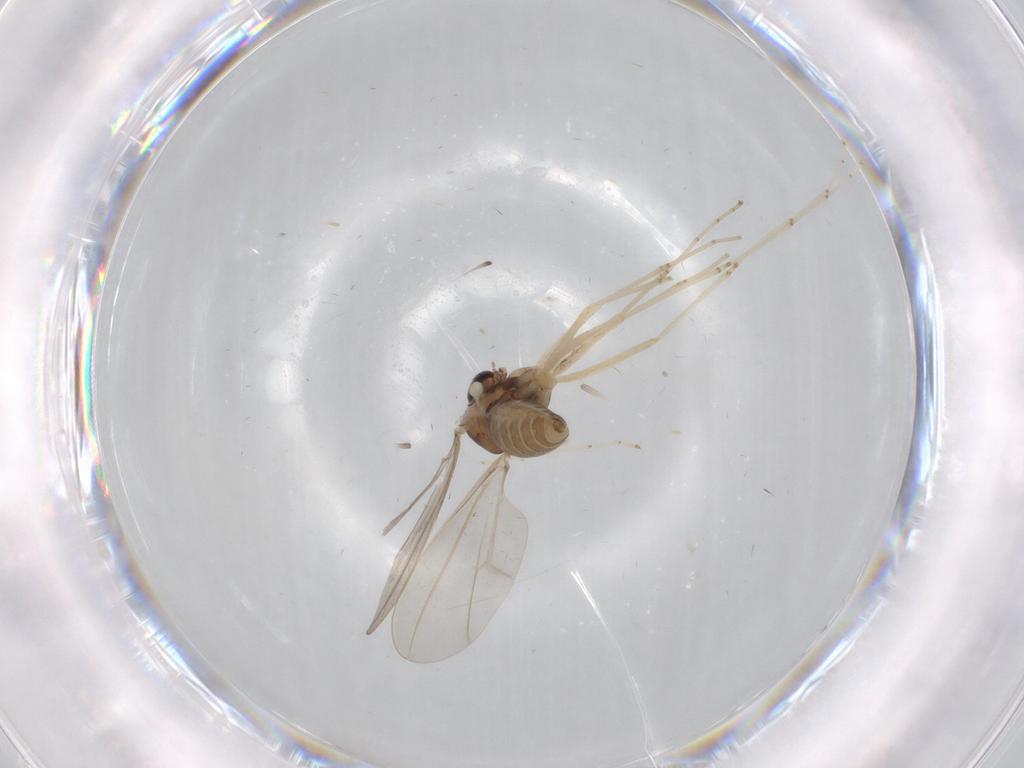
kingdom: Animalia
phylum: Arthropoda
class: Insecta
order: Diptera
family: Cecidomyiidae
